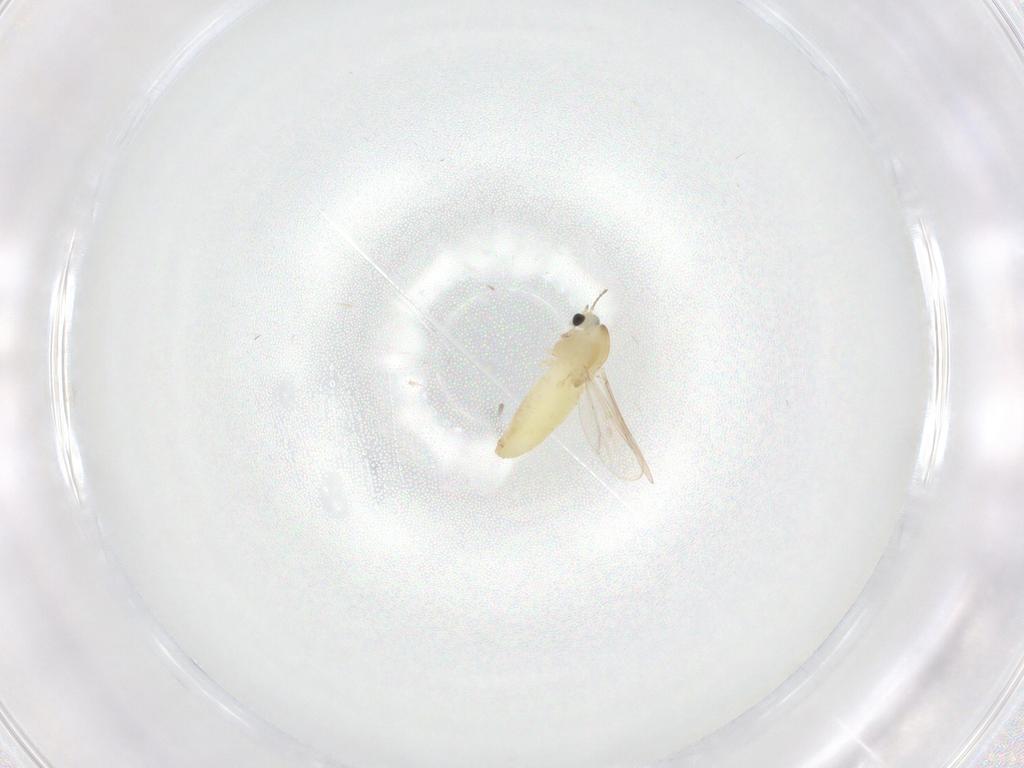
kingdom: Animalia
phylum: Arthropoda
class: Insecta
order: Diptera
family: Chironomidae
